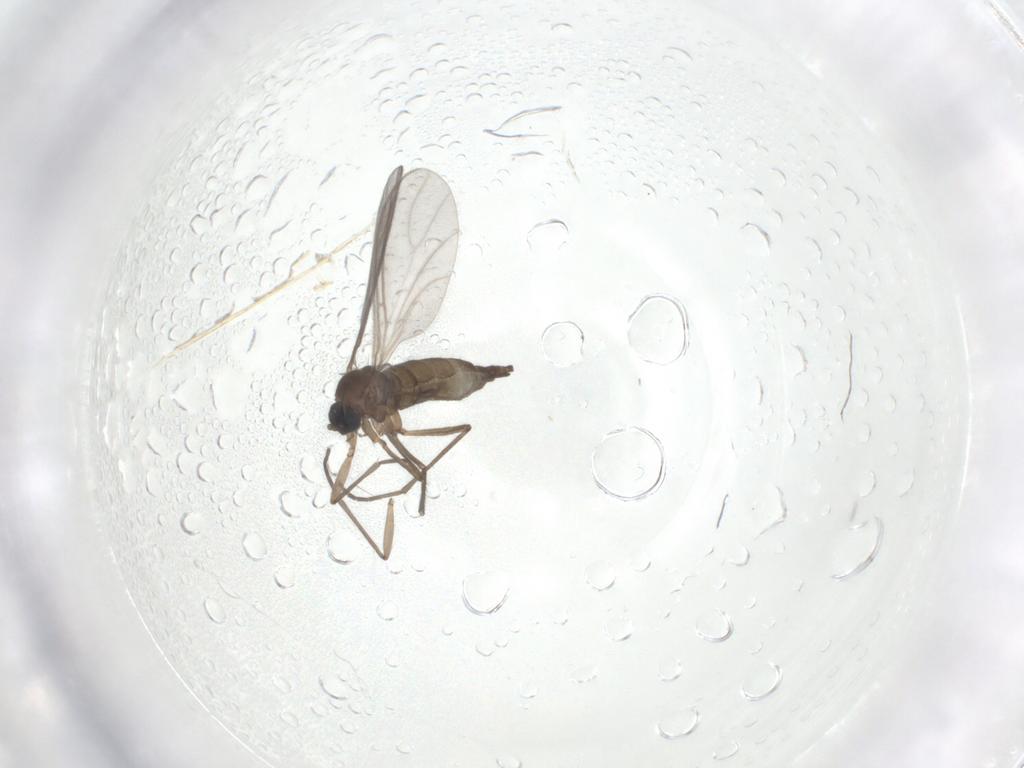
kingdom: Animalia
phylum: Arthropoda
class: Insecta
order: Diptera
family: Sciaridae
